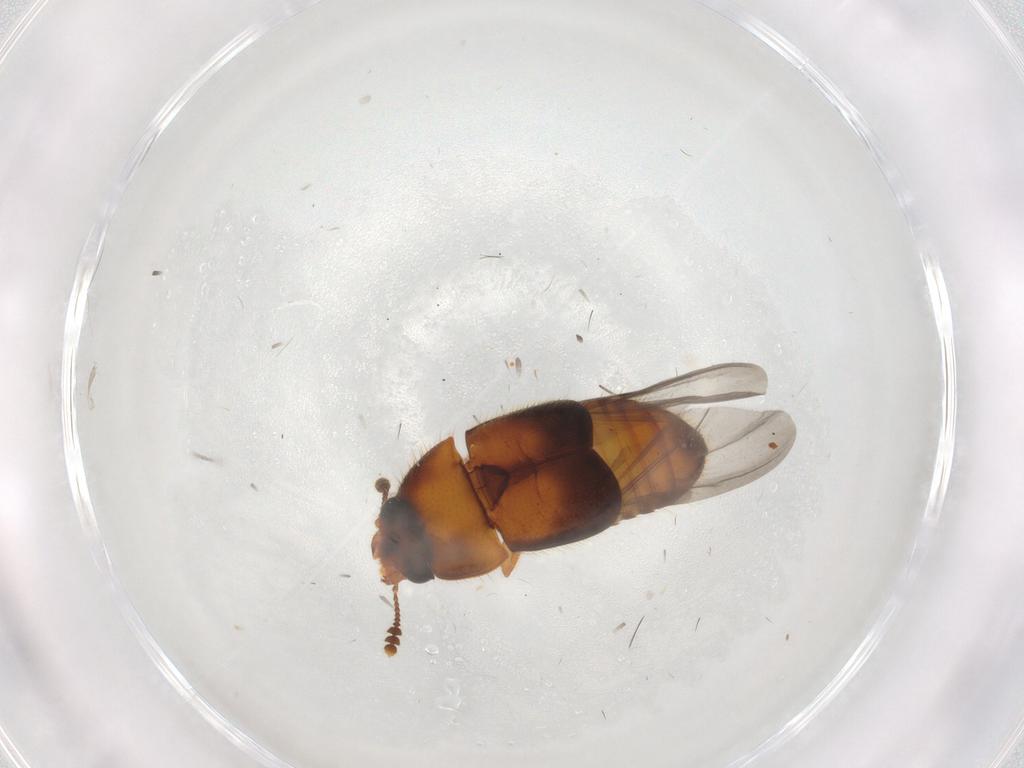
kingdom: Animalia
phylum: Arthropoda
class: Insecta
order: Coleoptera
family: Nitidulidae
